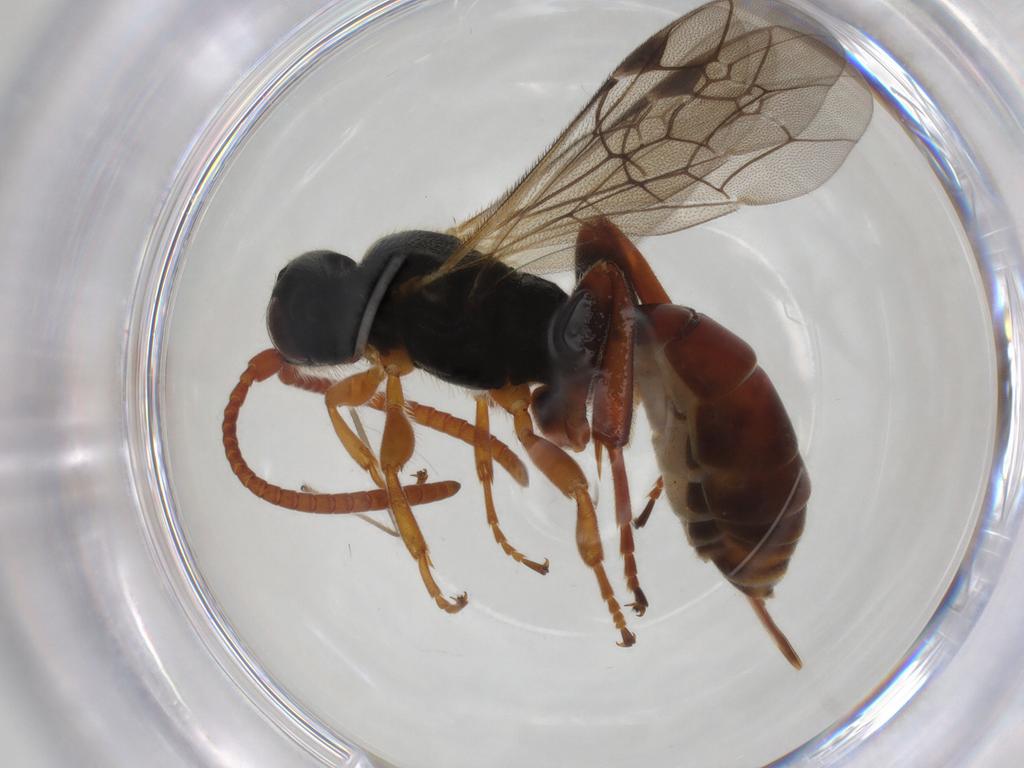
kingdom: Animalia
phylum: Arthropoda
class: Insecta
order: Hymenoptera
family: Ichneumonidae
